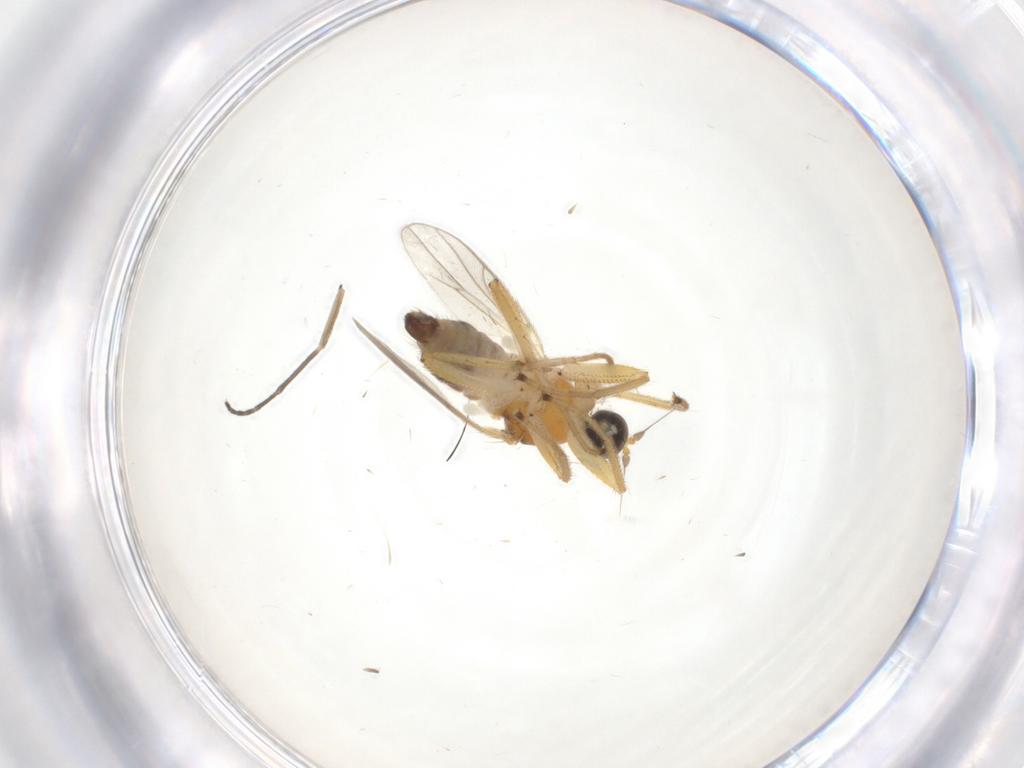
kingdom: Animalia
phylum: Arthropoda
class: Insecta
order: Diptera
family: Hybotidae
